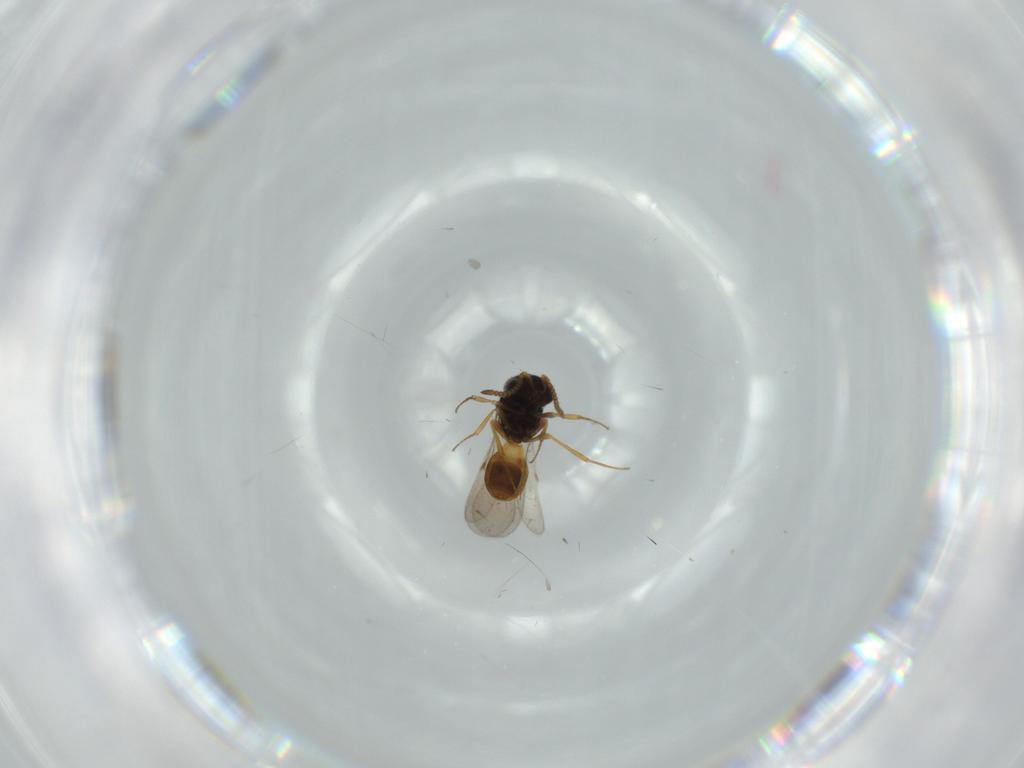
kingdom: Animalia
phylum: Arthropoda
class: Insecta
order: Hymenoptera
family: Scelionidae
